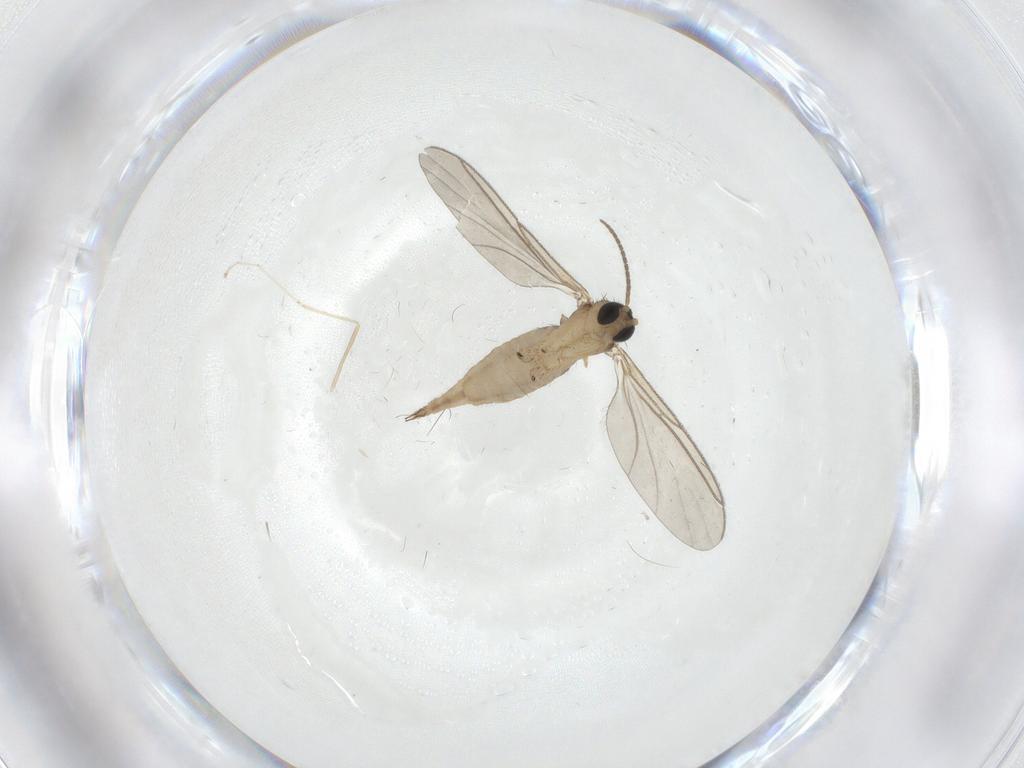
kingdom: Animalia
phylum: Arthropoda
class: Insecta
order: Diptera
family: Cecidomyiidae
